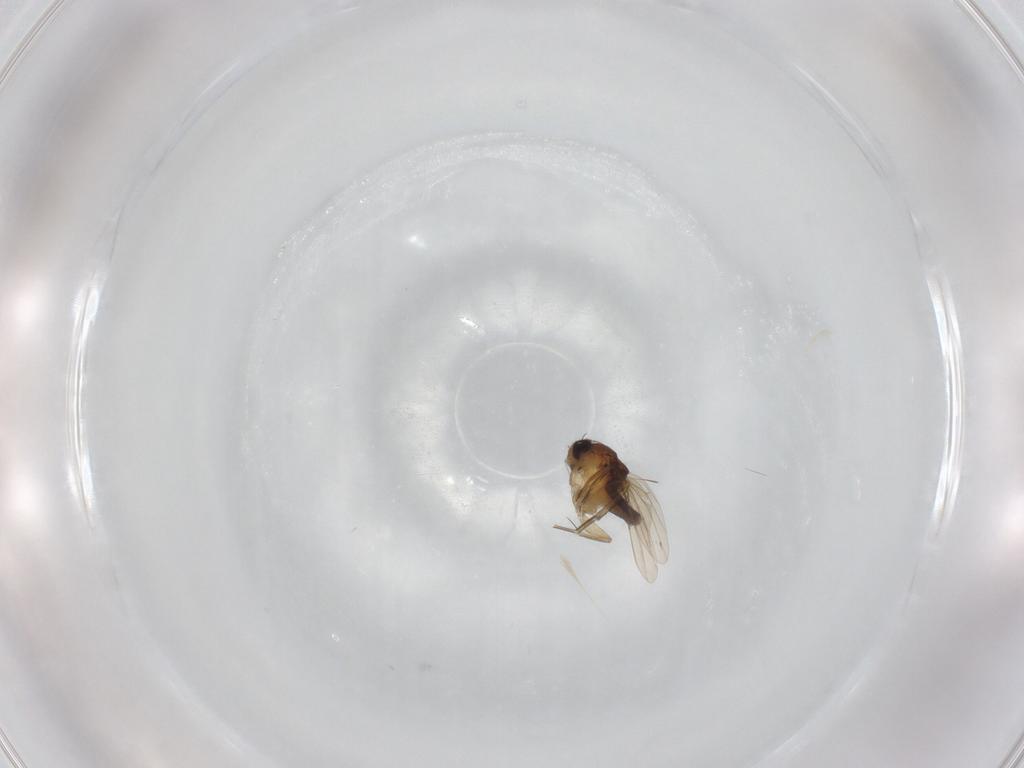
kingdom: Animalia
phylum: Arthropoda
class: Insecta
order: Diptera
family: Phoridae
